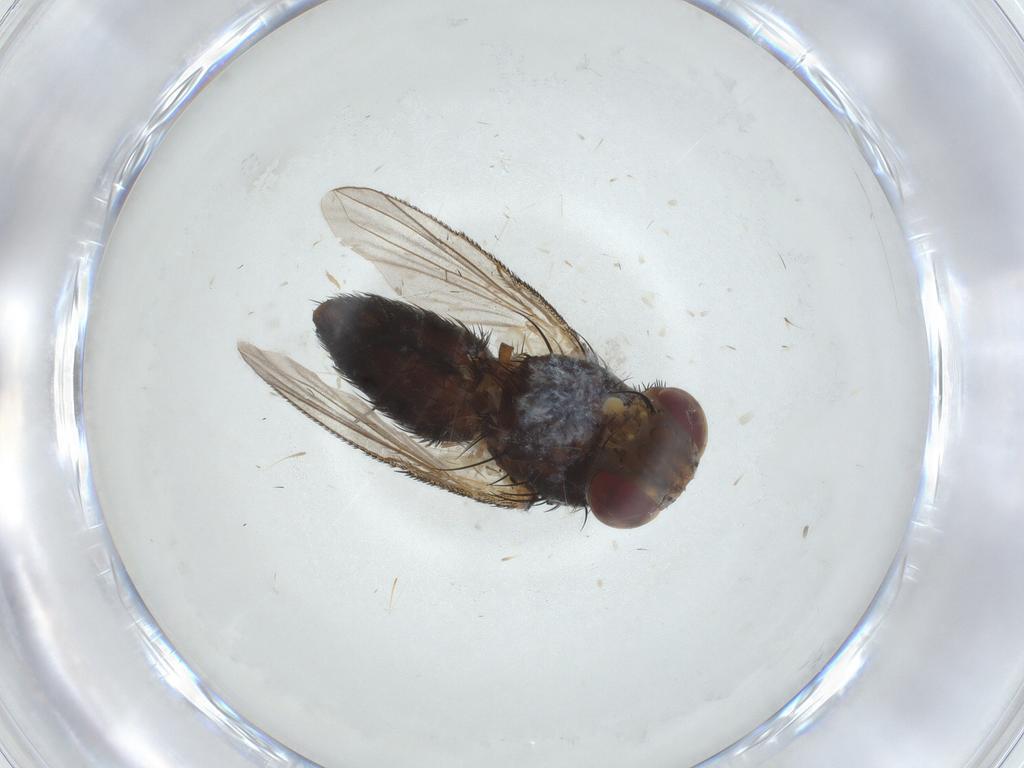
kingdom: Animalia
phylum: Arthropoda
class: Insecta
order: Diptera
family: Tachinidae
